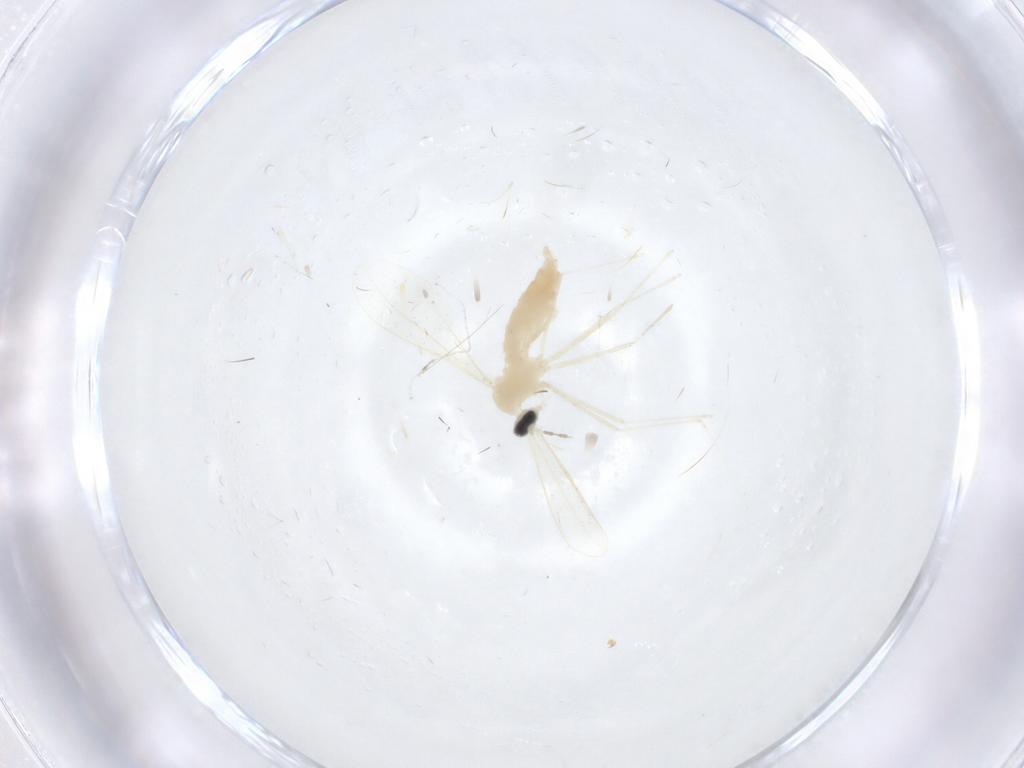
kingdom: Animalia
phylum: Arthropoda
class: Insecta
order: Diptera
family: Cecidomyiidae
